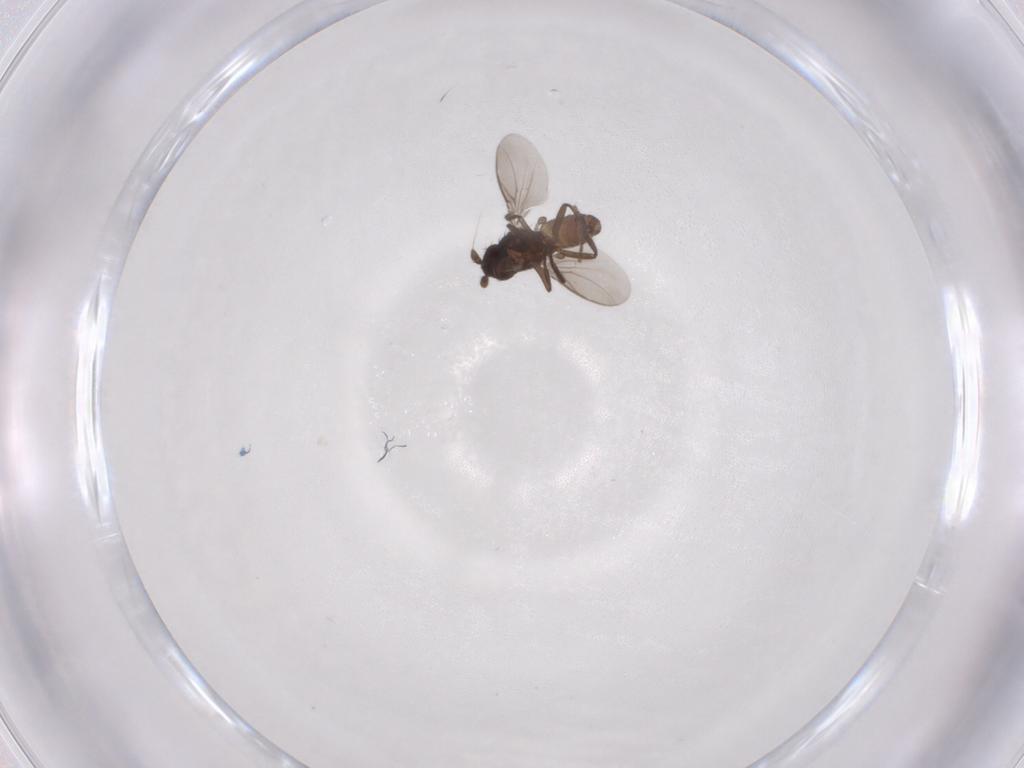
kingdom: Animalia
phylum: Arthropoda
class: Insecta
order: Diptera
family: Sphaeroceridae
